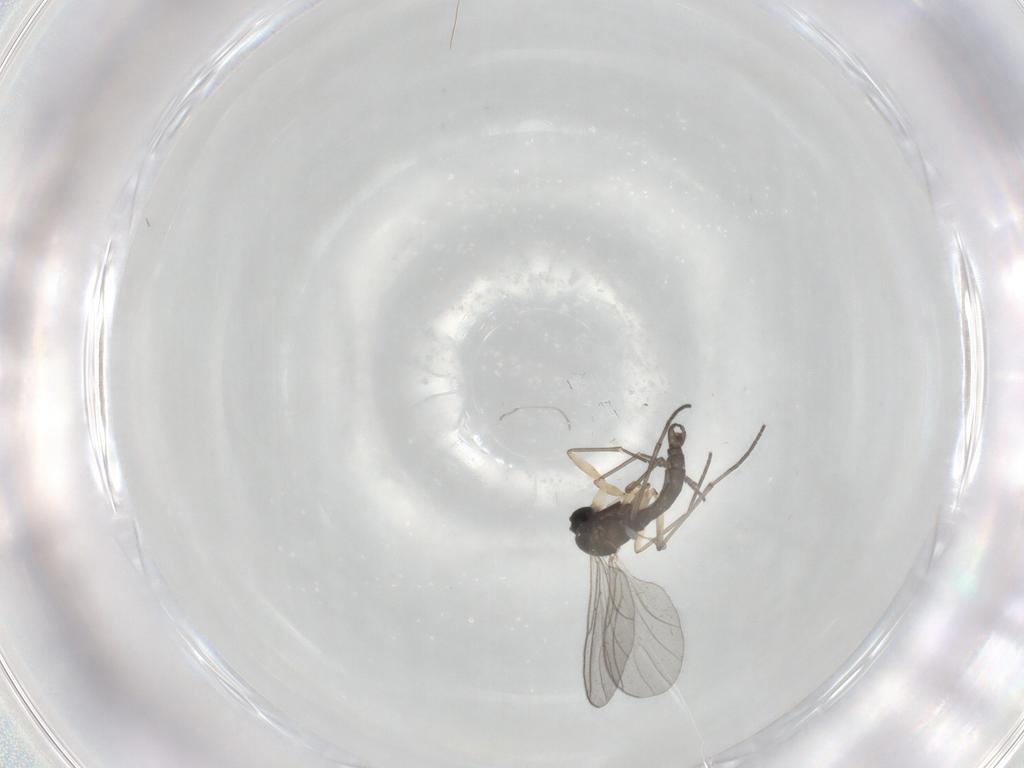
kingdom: Animalia
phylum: Arthropoda
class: Insecta
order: Diptera
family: Sciaridae
